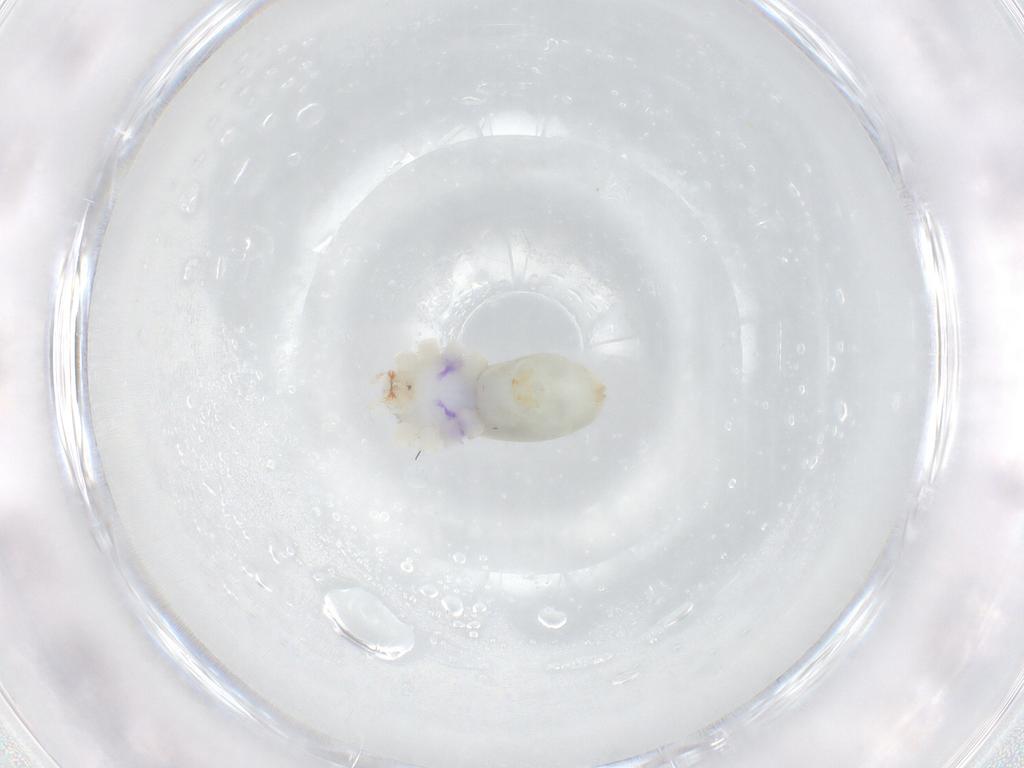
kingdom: Animalia
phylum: Arthropoda
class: Arachnida
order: Araneae
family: Pholcidae
